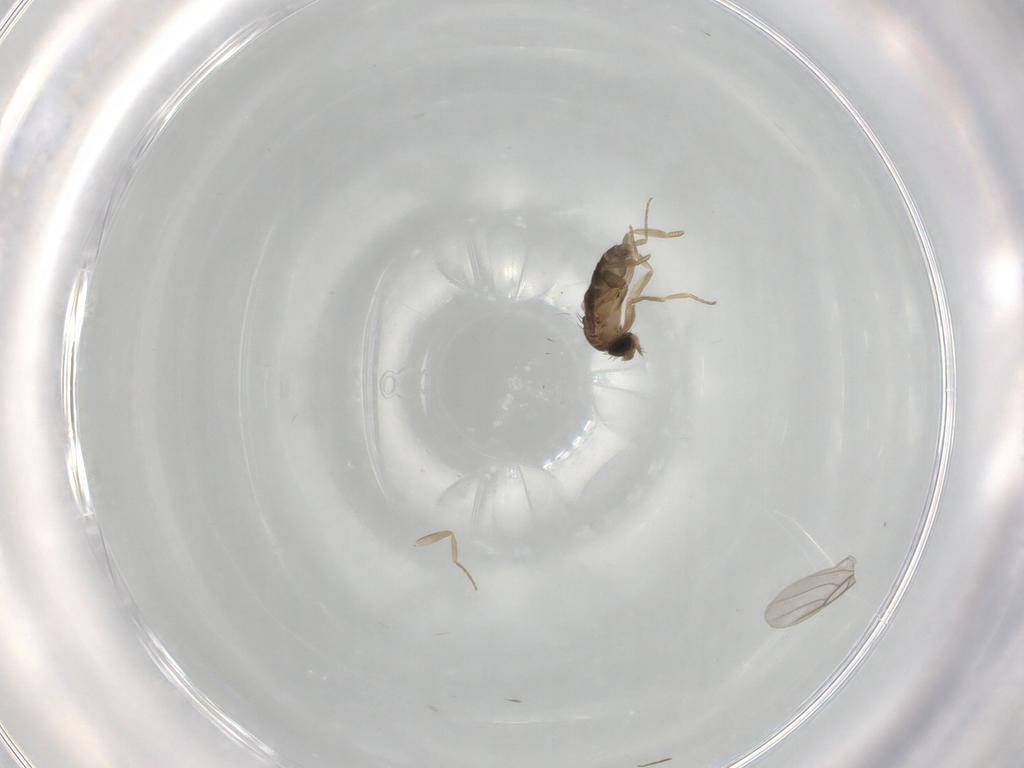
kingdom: Animalia
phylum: Arthropoda
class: Insecta
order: Diptera
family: Psychodidae
